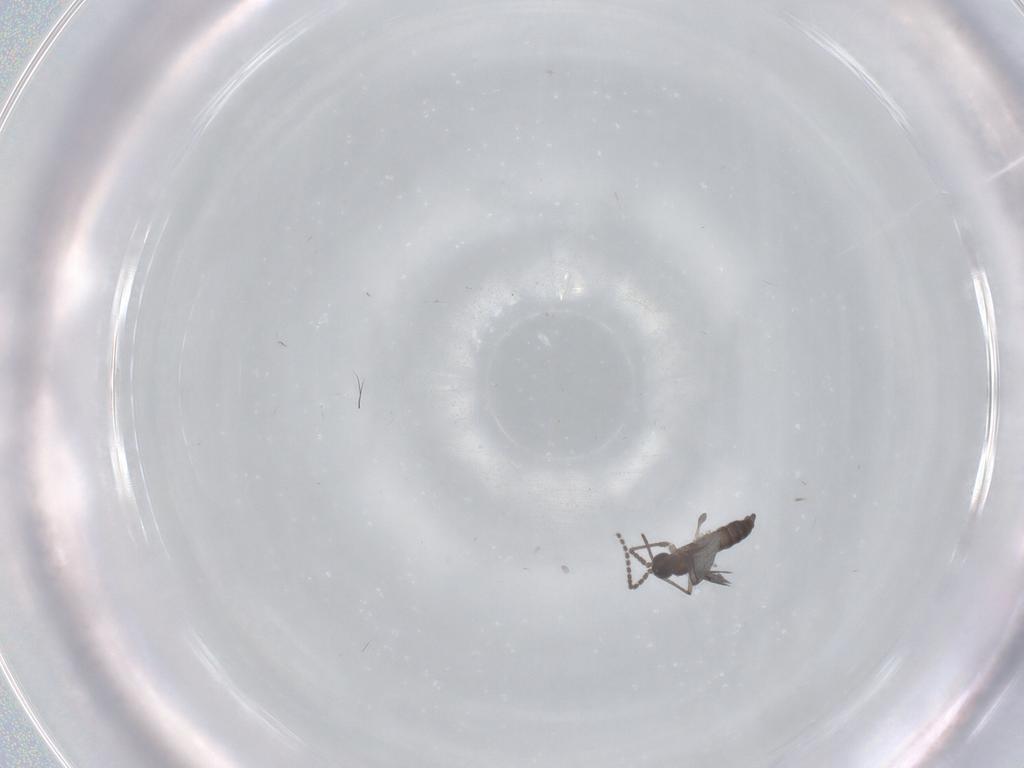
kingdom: Animalia
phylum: Arthropoda
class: Insecta
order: Diptera
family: Sciaridae
